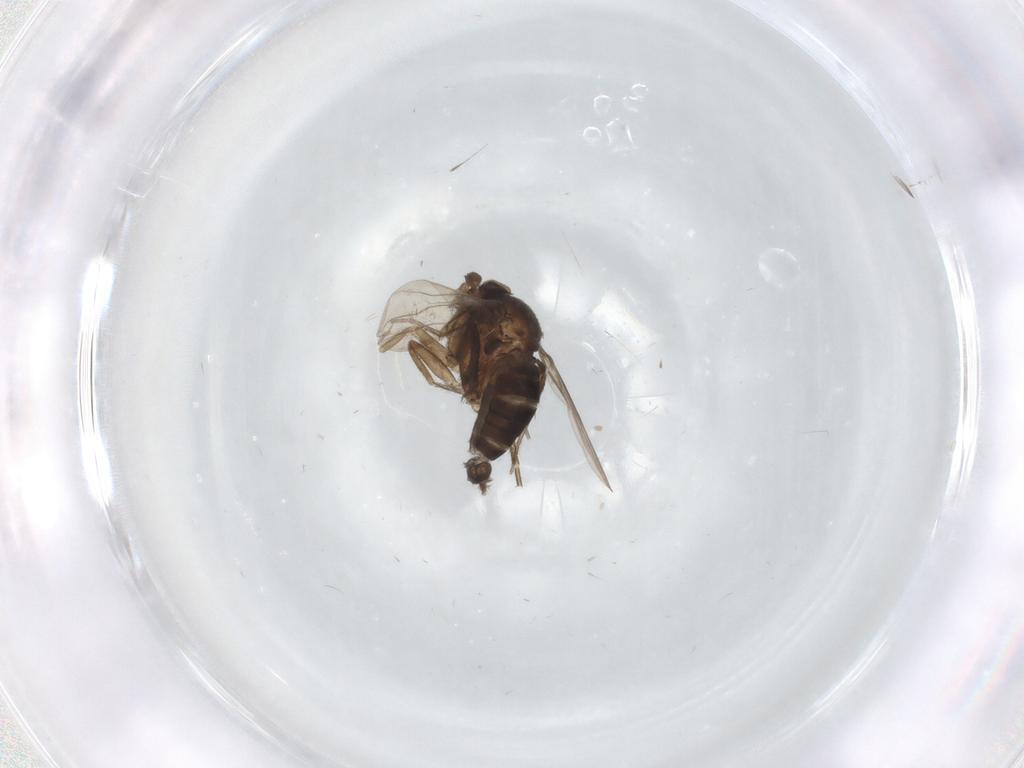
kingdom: Animalia
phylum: Arthropoda
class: Insecta
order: Diptera
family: Phoridae
